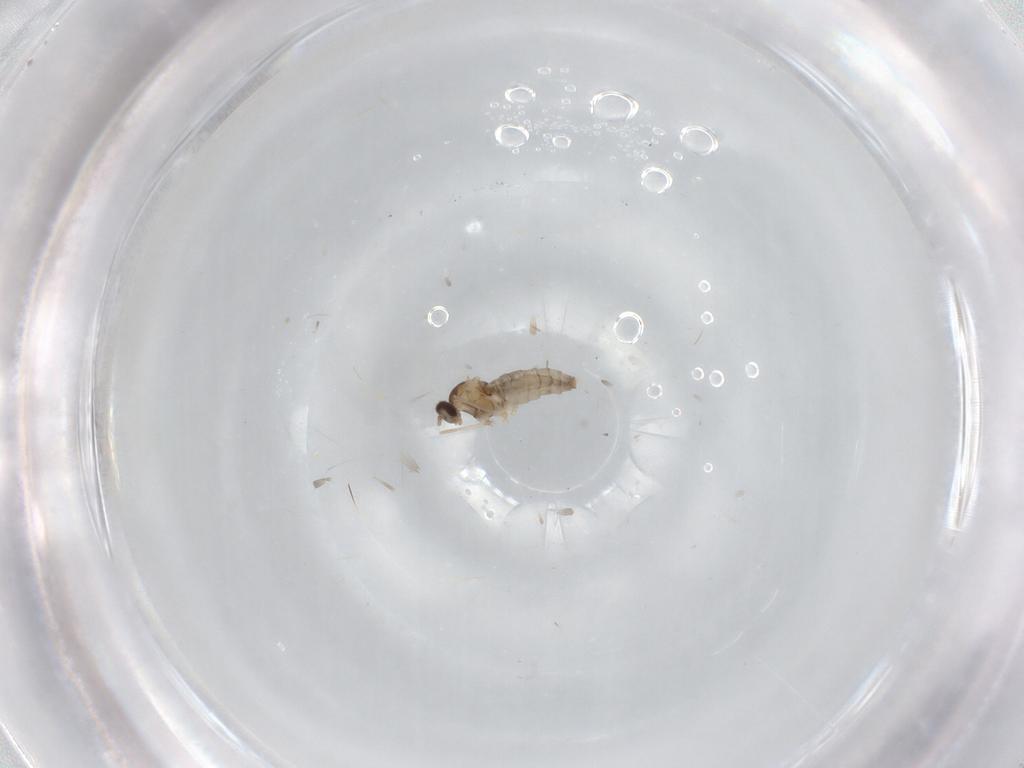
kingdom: Animalia
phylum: Arthropoda
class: Insecta
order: Diptera
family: Cecidomyiidae
